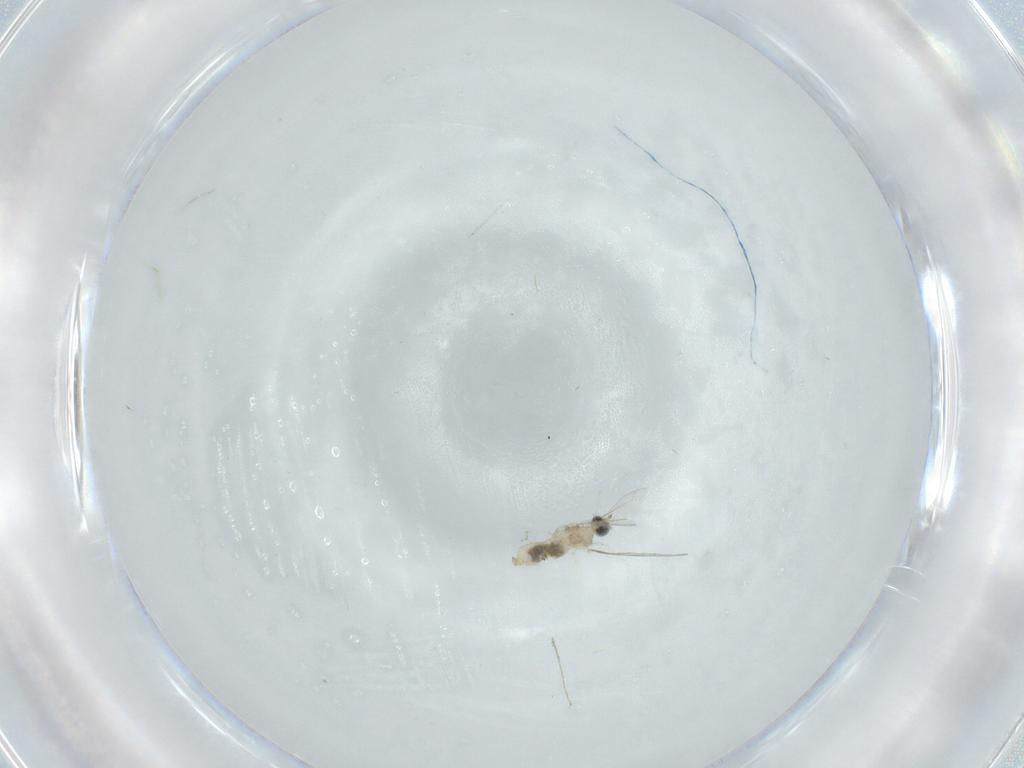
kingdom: Animalia
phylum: Arthropoda
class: Insecta
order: Diptera
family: Cecidomyiidae
